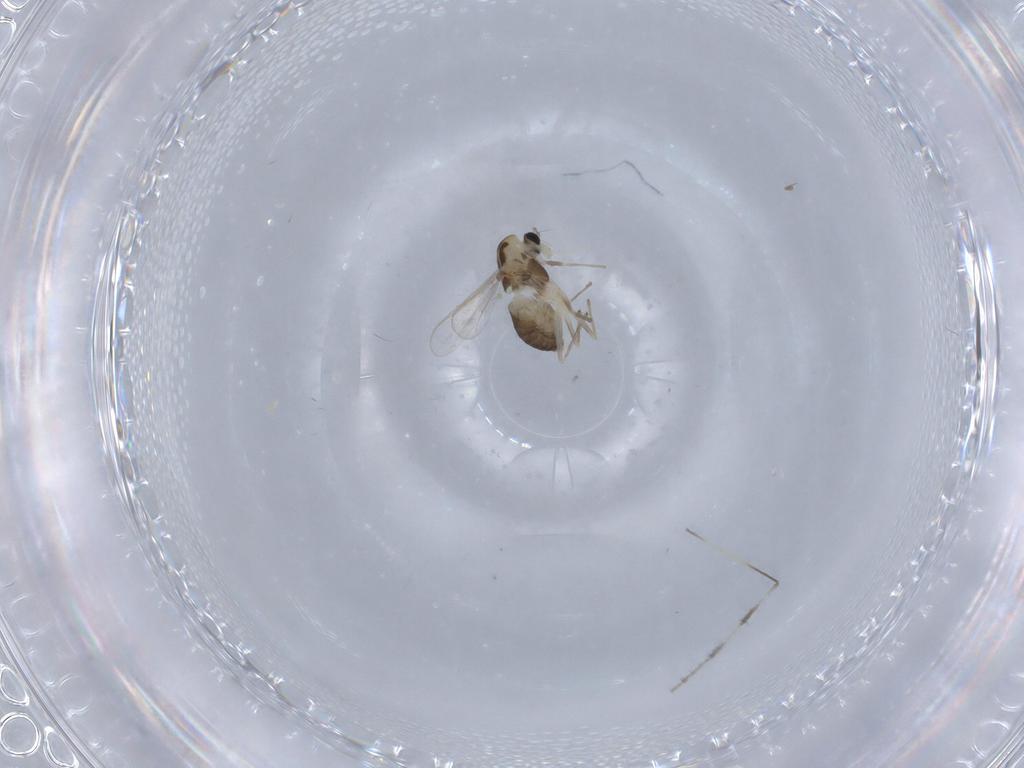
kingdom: Animalia
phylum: Arthropoda
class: Insecta
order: Diptera
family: Chironomidae
